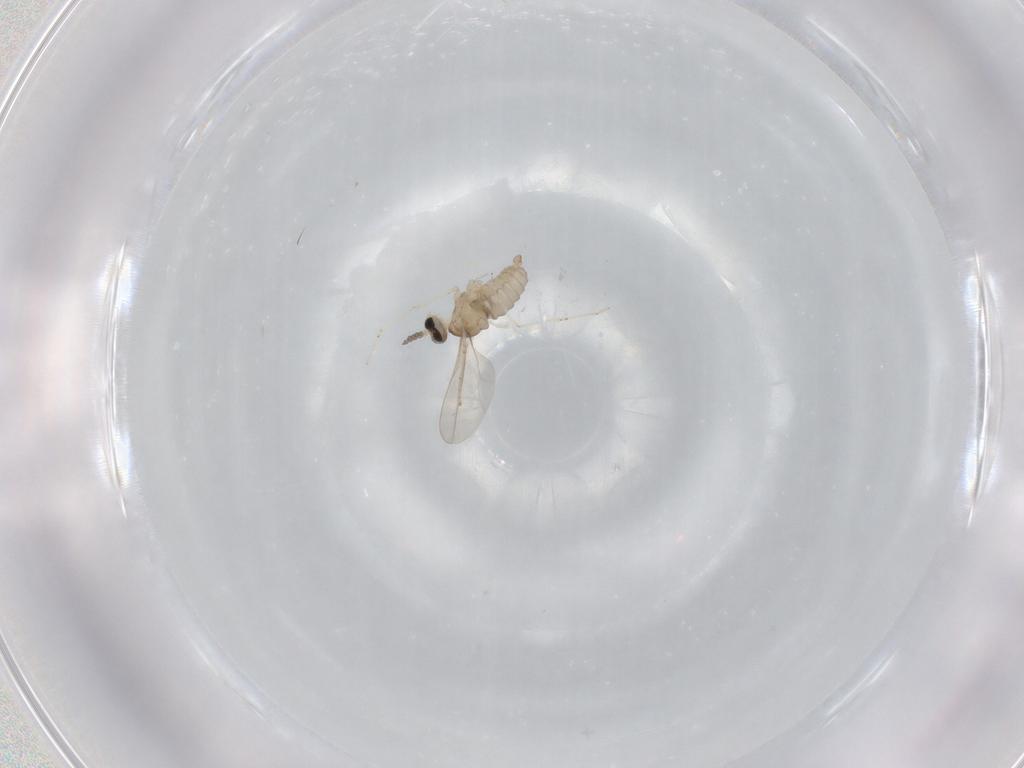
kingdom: Animalia
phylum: Arthropoda
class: Insecta
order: Diptera
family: Cecidomyiidae
